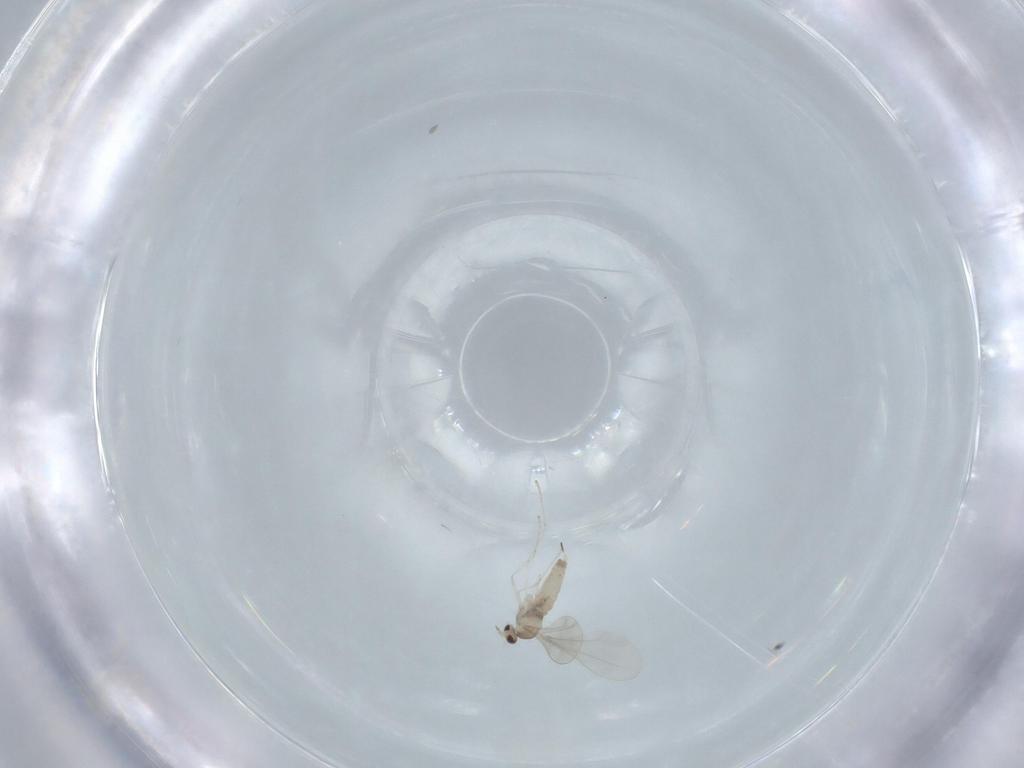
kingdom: Animalia
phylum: Arthropoda
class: Insecta
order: Diptera
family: Cecidomyiidae
